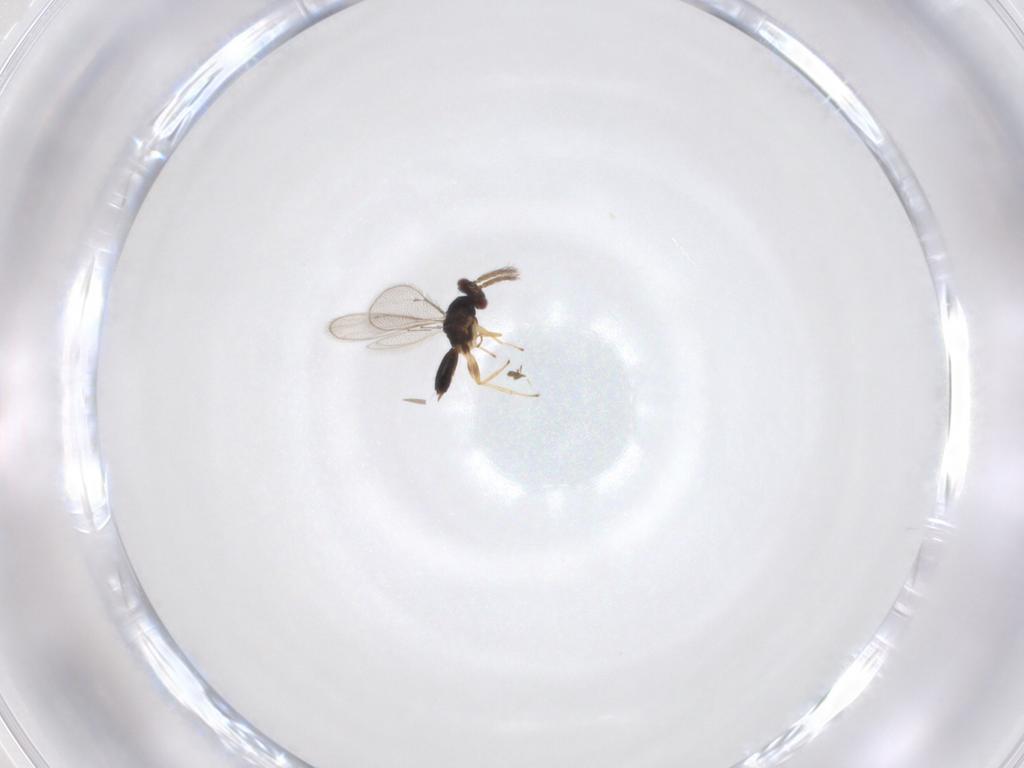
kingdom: Animalia
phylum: Arthropoda
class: Insecta
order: Hymenoptera
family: Eulophidae
